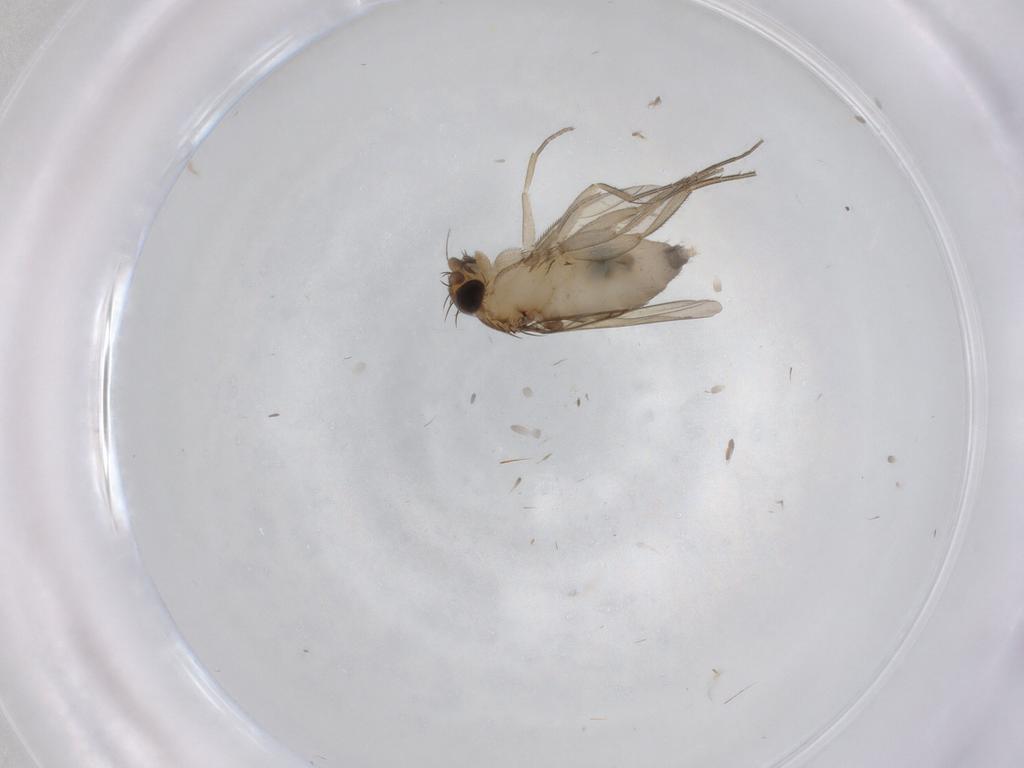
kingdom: Animalia
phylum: Arthropoda
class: Insecta
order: Diptera
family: Phoridae
